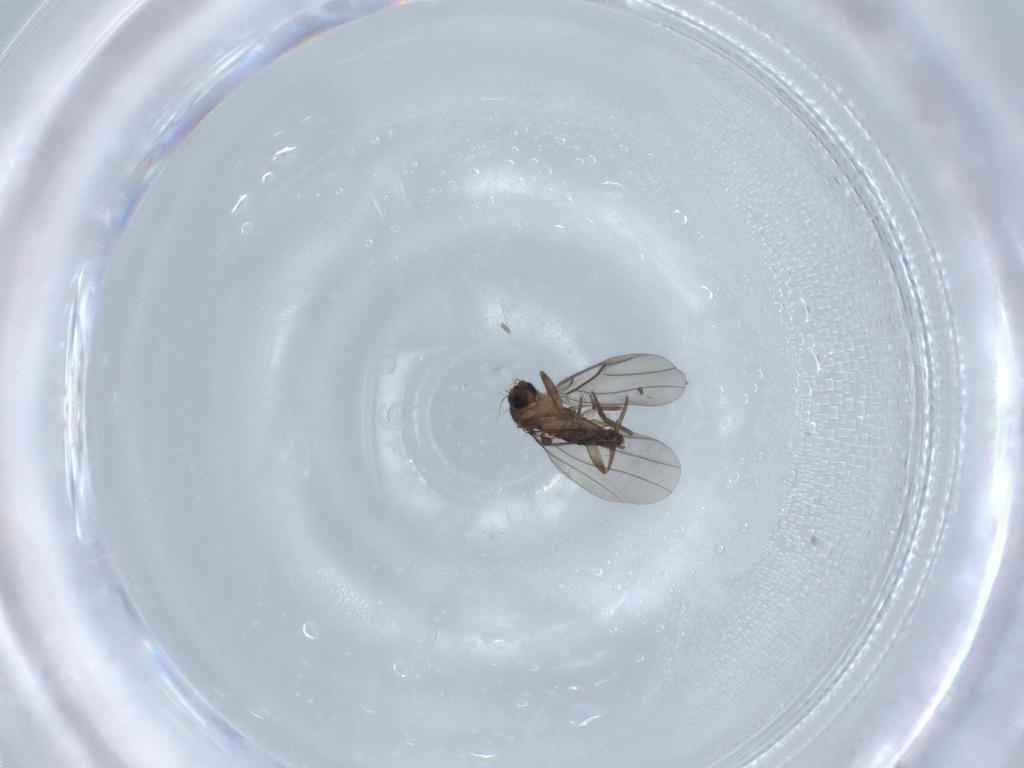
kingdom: Animalia
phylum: Arthropoda
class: Insecta
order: Diptera
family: Phoridae
